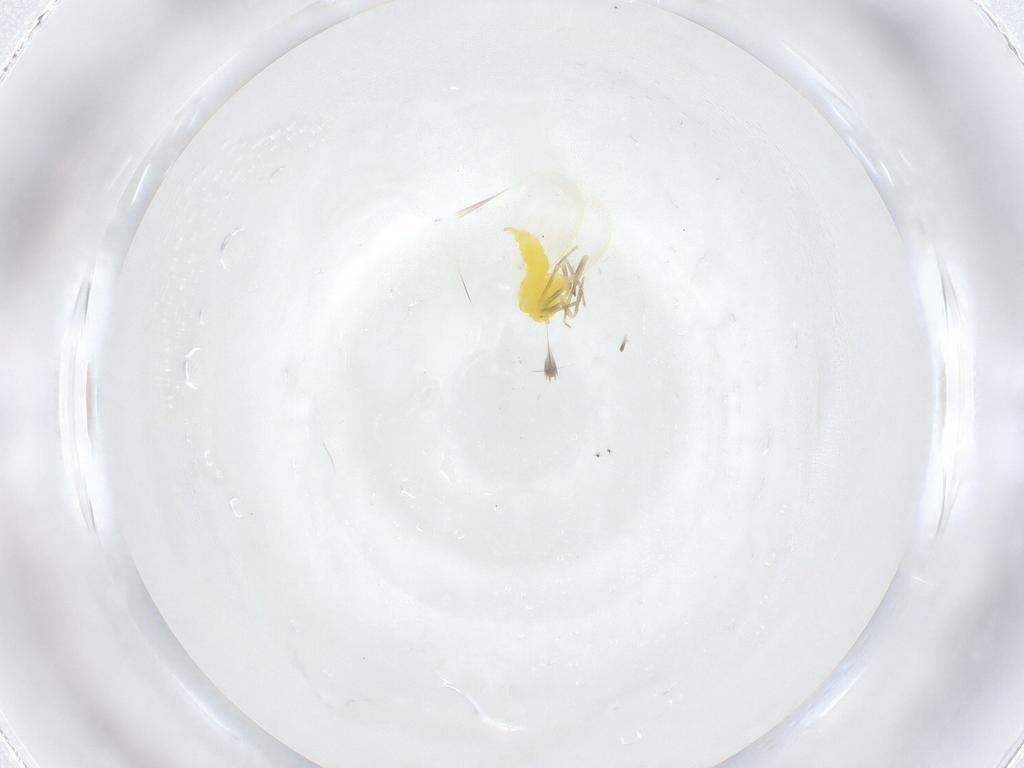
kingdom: Animalia
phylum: Arthropoda
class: Insecta
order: Hemiptera
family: Aleyrodidae
